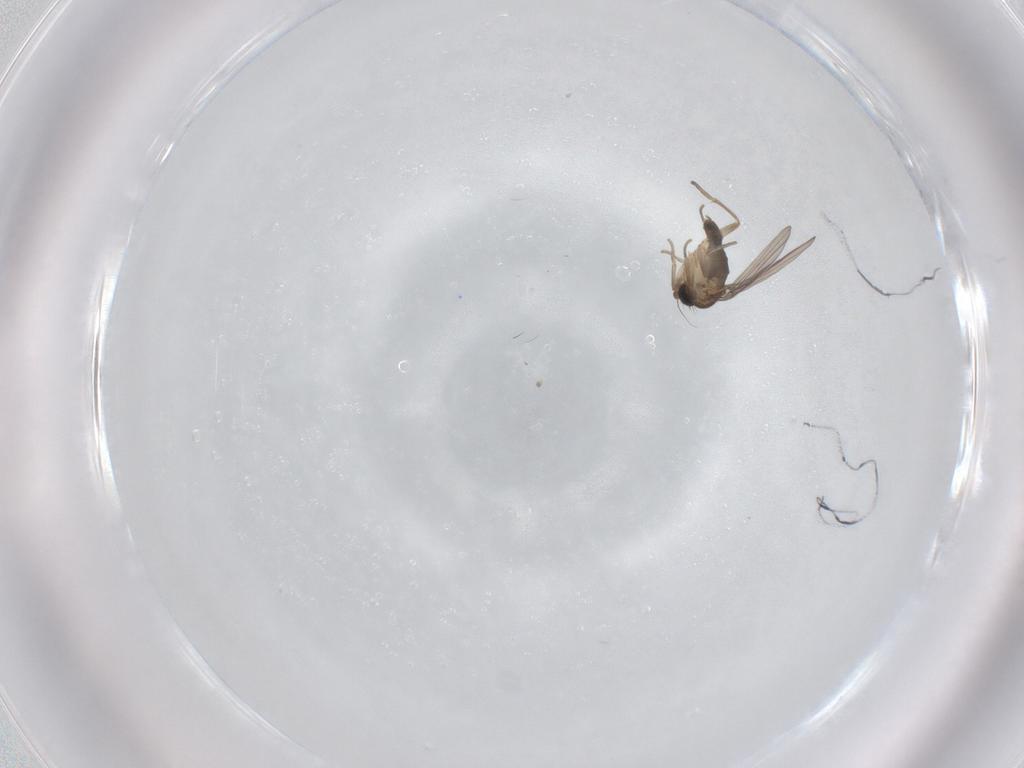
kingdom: Animalia
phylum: Arthropoda
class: Insecta
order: Diptera
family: Phoridae
